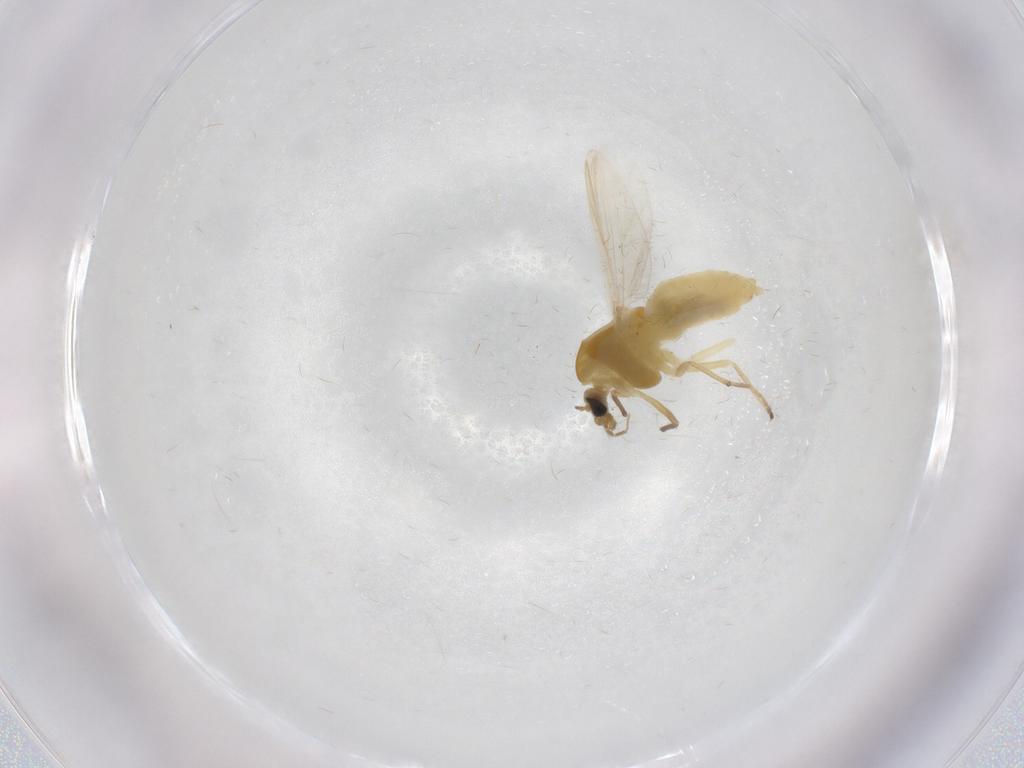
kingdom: Animalia
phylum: Arthropoda
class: Insecta
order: Diptera
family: Chironomidae
